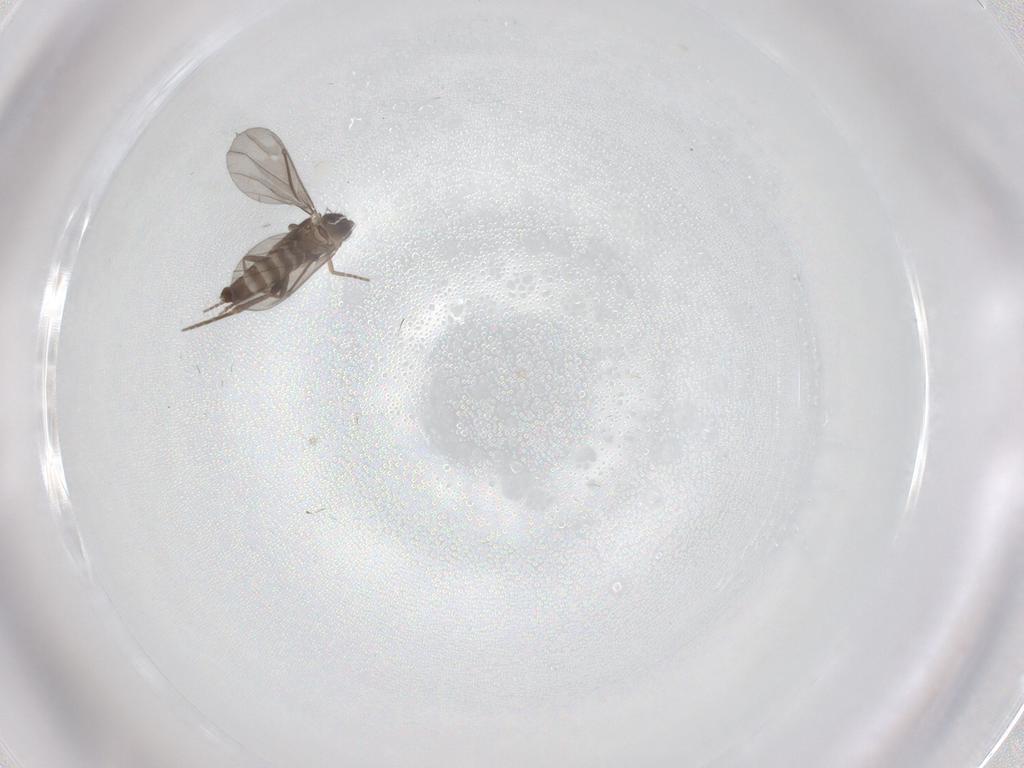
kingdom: Animalia
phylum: Arthropoda
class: Insecta
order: Diptera
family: Phoridae
